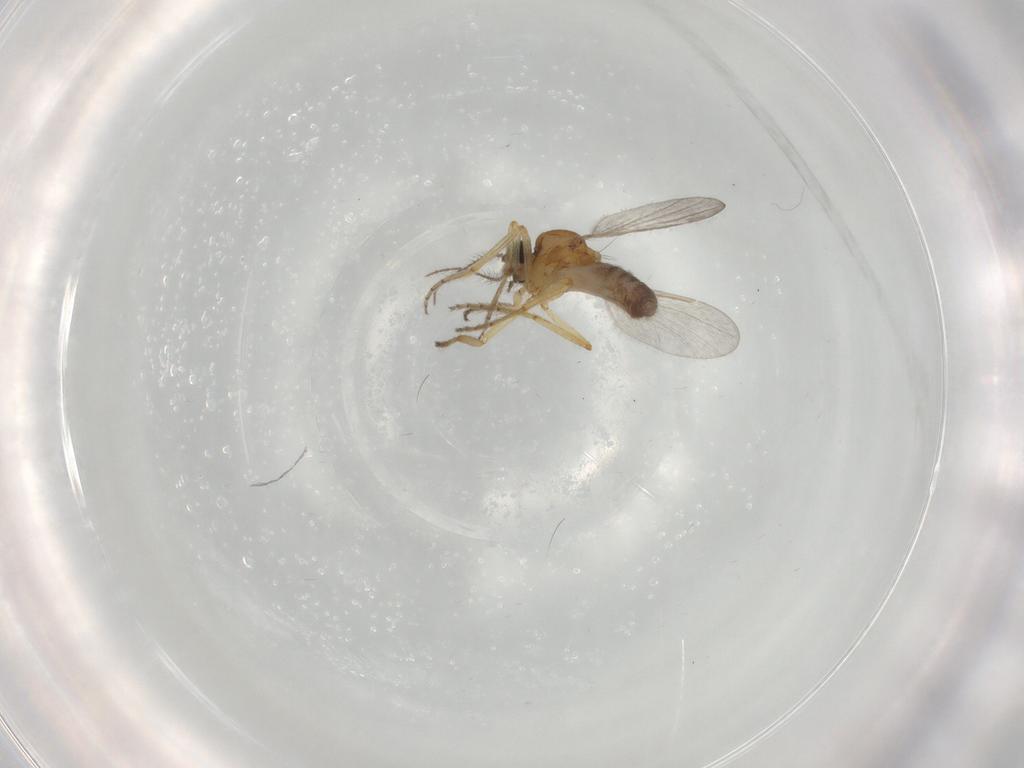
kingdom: Animalia
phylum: Arthropoda
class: Insecta
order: Diptera
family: Ceratopogonidae
